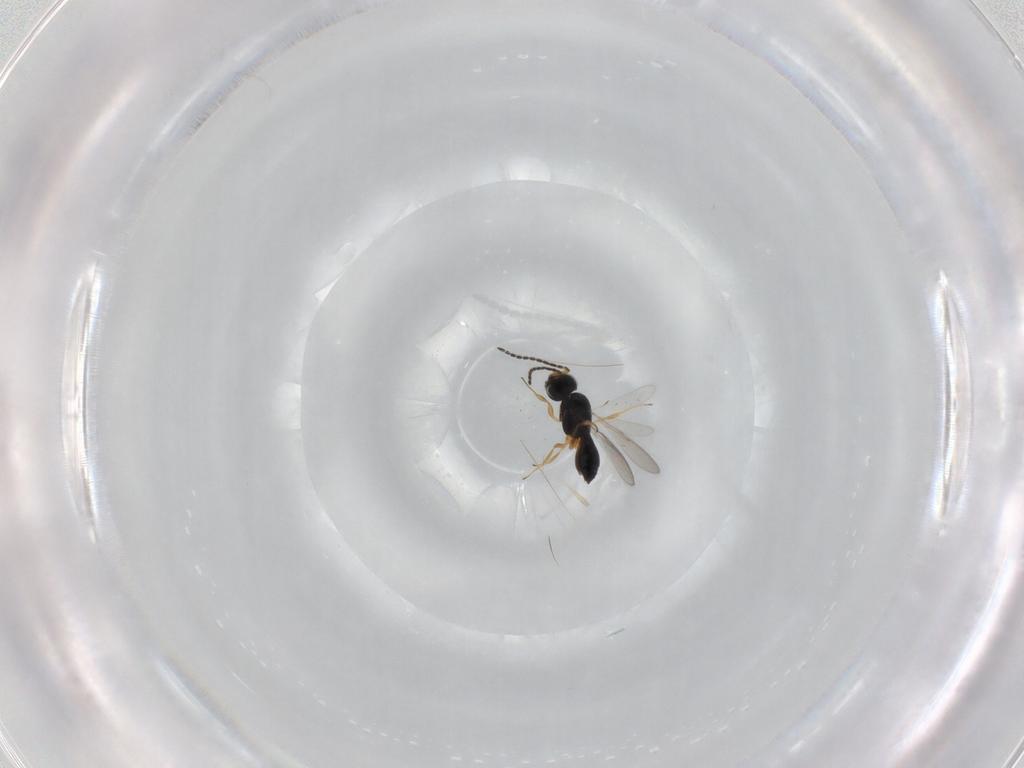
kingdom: Animalia
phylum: Arthropoda
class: Insecta
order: Hymenoptera
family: Scelionidae
